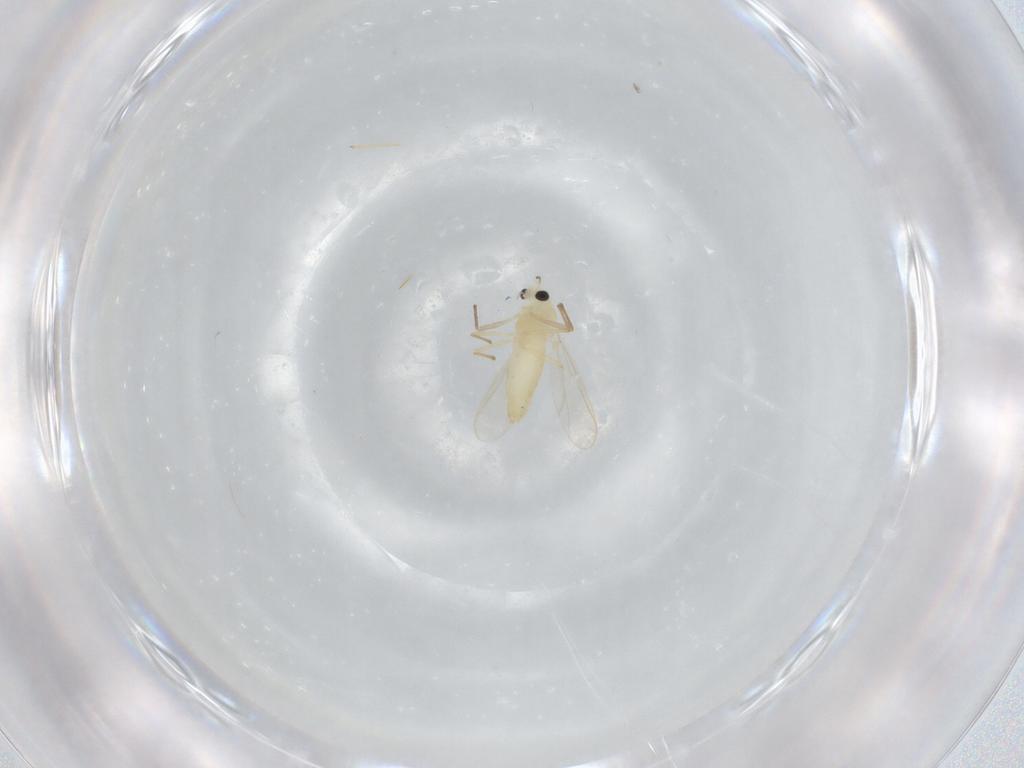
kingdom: Animalia
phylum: Arthropoda
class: Insecta
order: Diptera
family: Chironomidae
